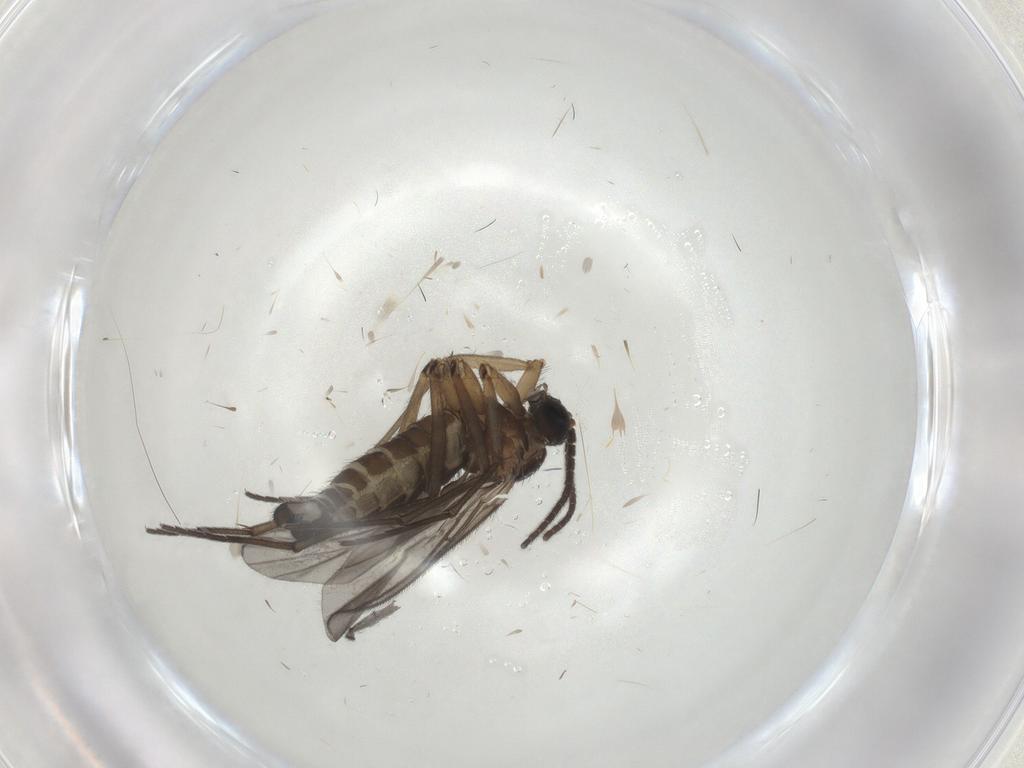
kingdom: Animalia
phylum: Arthropoda
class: Insecta
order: Diptera
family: Sciaridae
